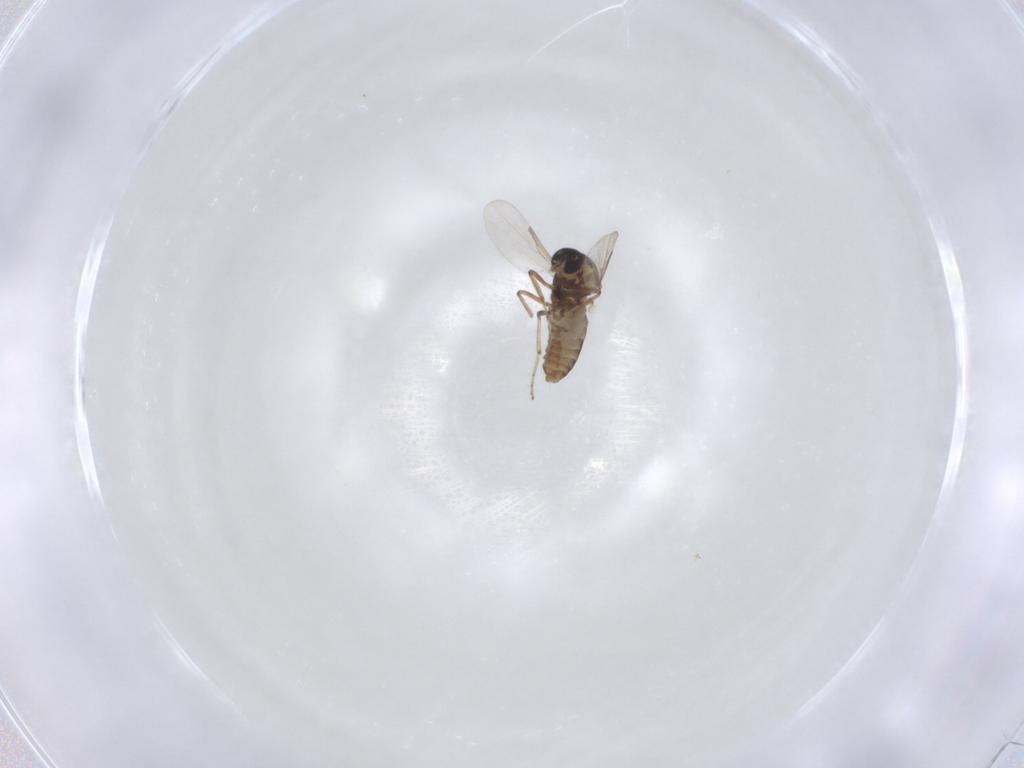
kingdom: Animalia
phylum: Arthropoda
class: Insecta
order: Diptera
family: Ceratopogonidae
